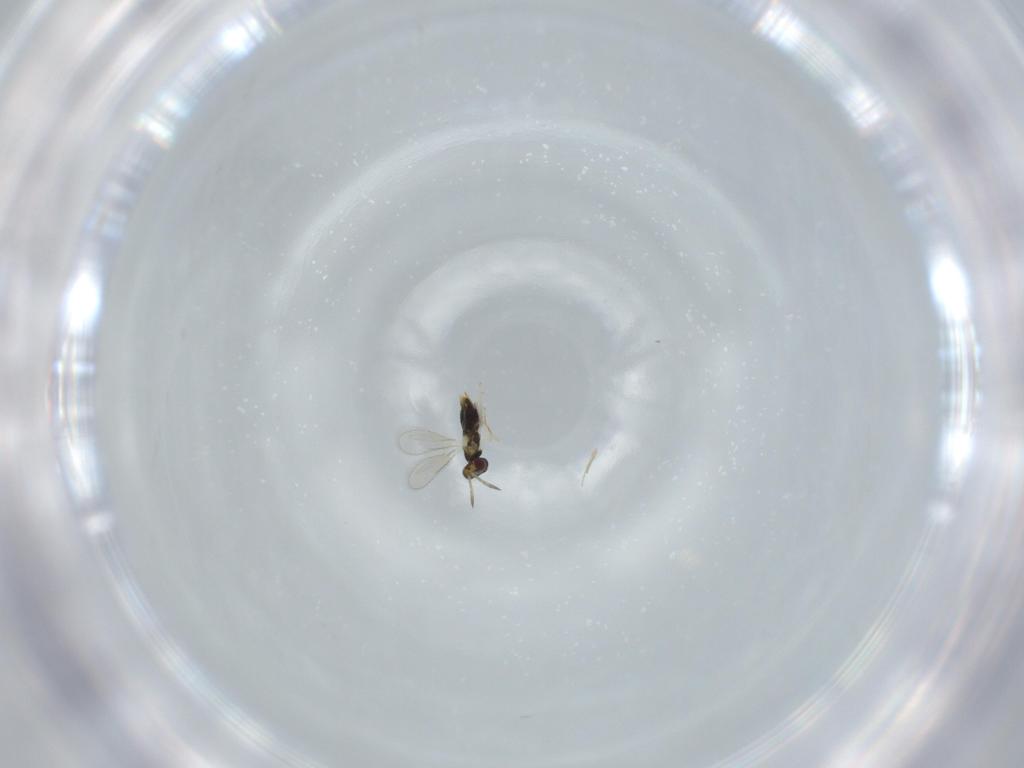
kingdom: Animalia
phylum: Arthropoda
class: Insecta
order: Hymenoptera
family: Aphelinidae
